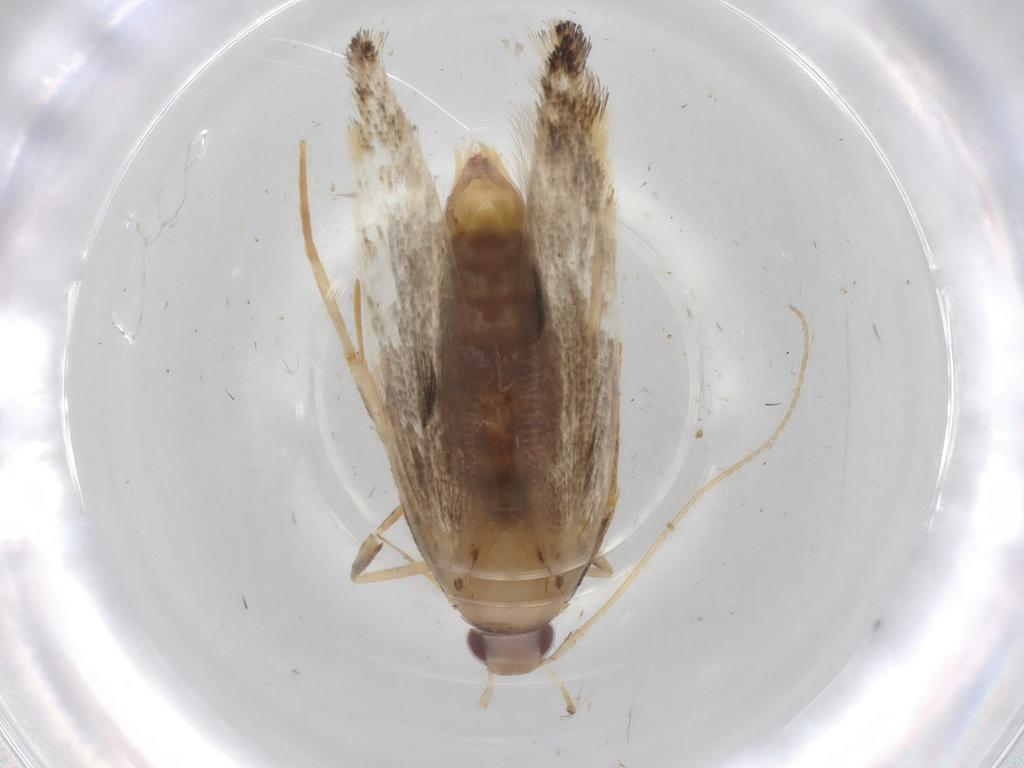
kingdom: Animalia
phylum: Arthropoda
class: Insecta
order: Lepidoptera
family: Cosmopterigidae
